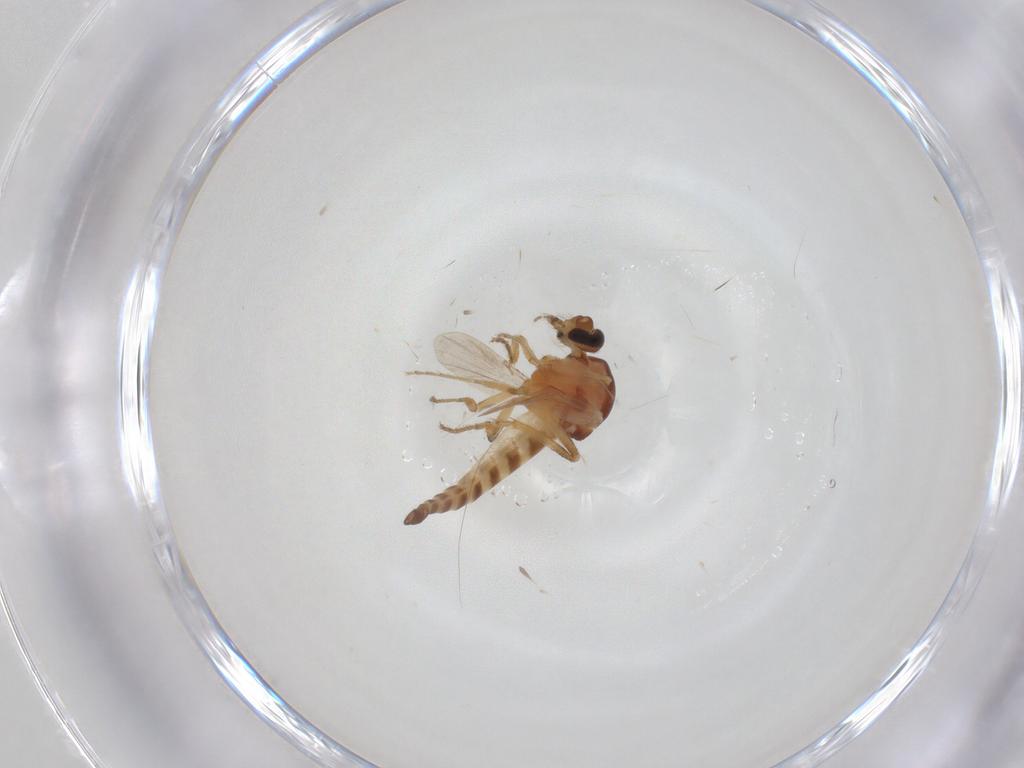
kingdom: Animalia
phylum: Arthropoda
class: Insecta
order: Diptera
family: Ceratopogonidae
